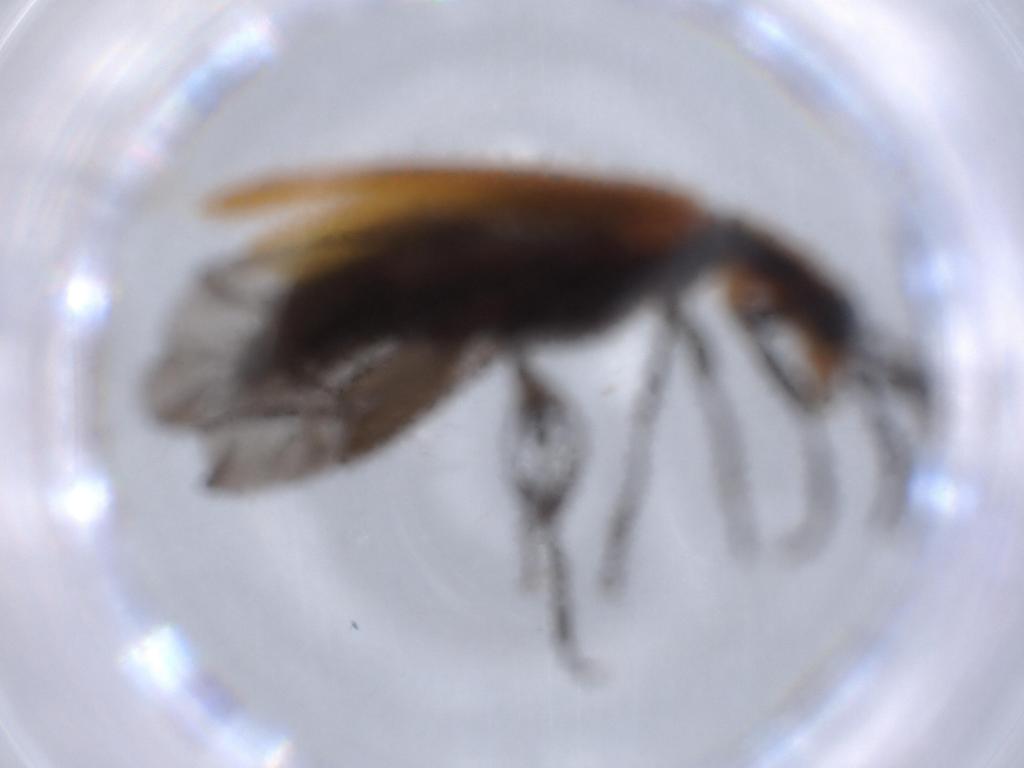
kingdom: Animalia
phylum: Arthropoda
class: Insecta
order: Coleoptera
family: Cleridae
